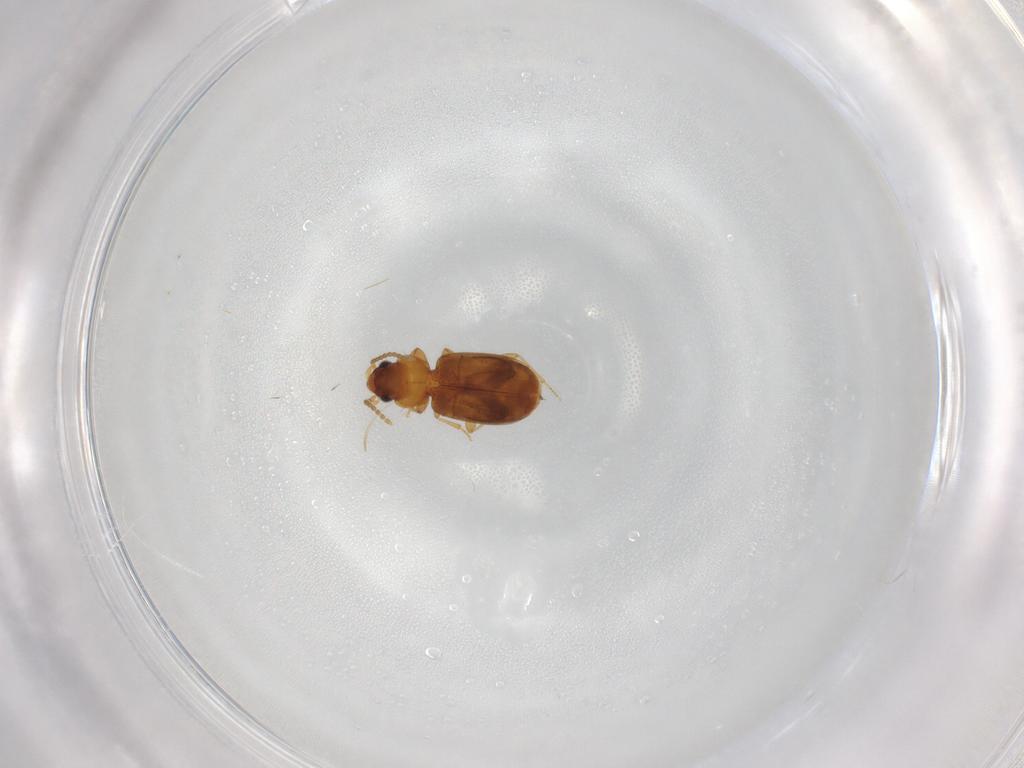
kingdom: Animalia
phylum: Arthropoda
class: Insecta
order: Coleoptera
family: Carabidae
